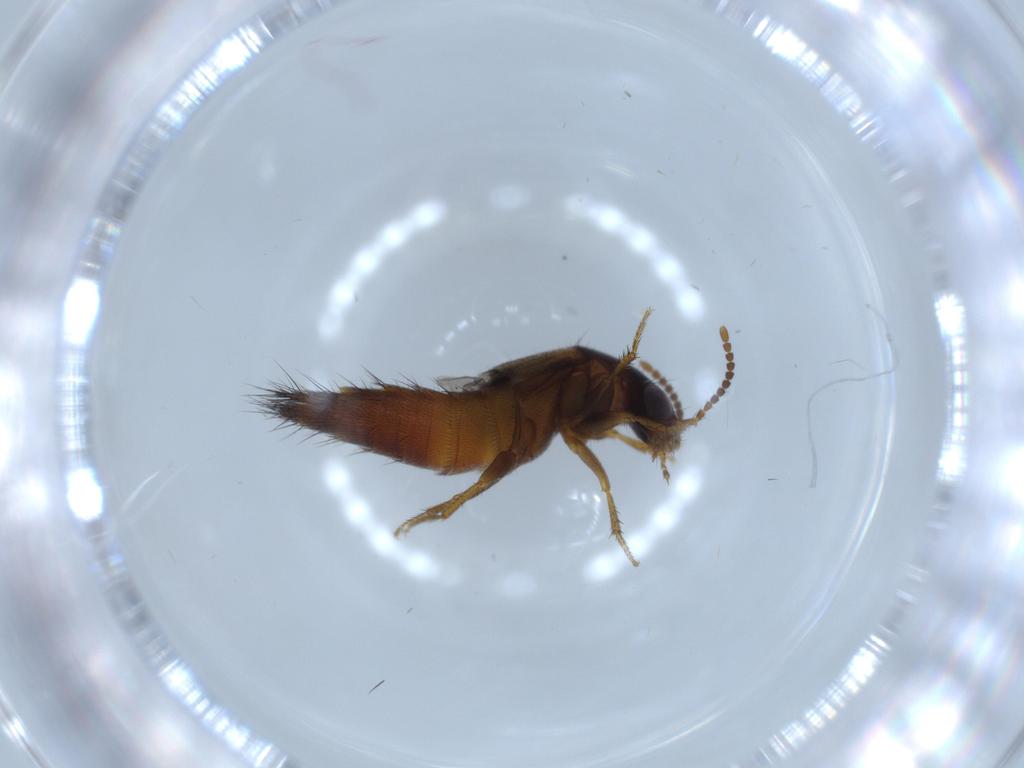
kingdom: Animalia
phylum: Arthropoda
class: Insecta
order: Coleoptera
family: Staphylinidae
